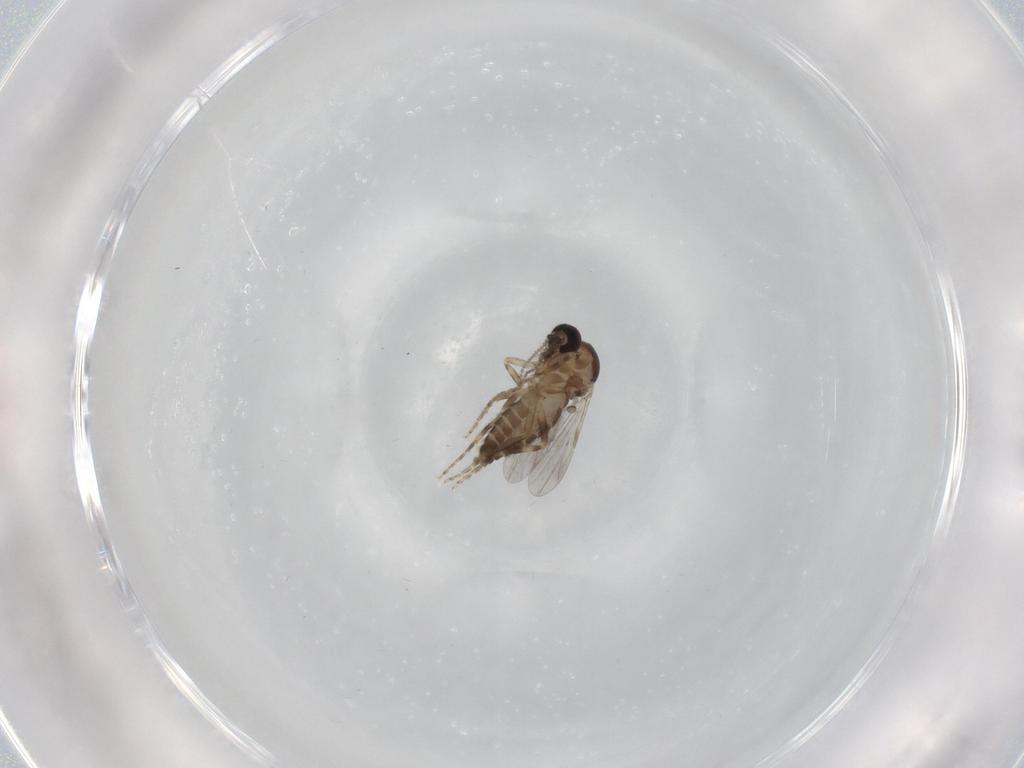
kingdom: Animalia
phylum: Arthropoda
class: Insecta
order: Diptera
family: Ceratopogonidae
